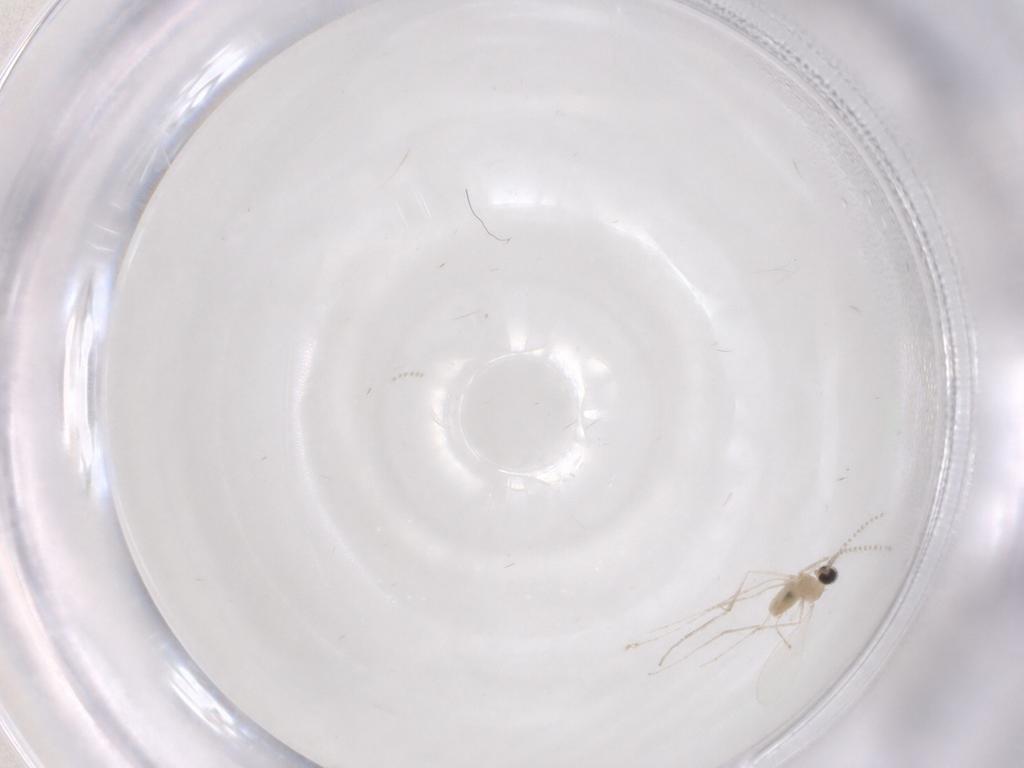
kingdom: Animalia
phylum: Arthropoda
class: Insecta
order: Diptera
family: Cecidomyiidae
